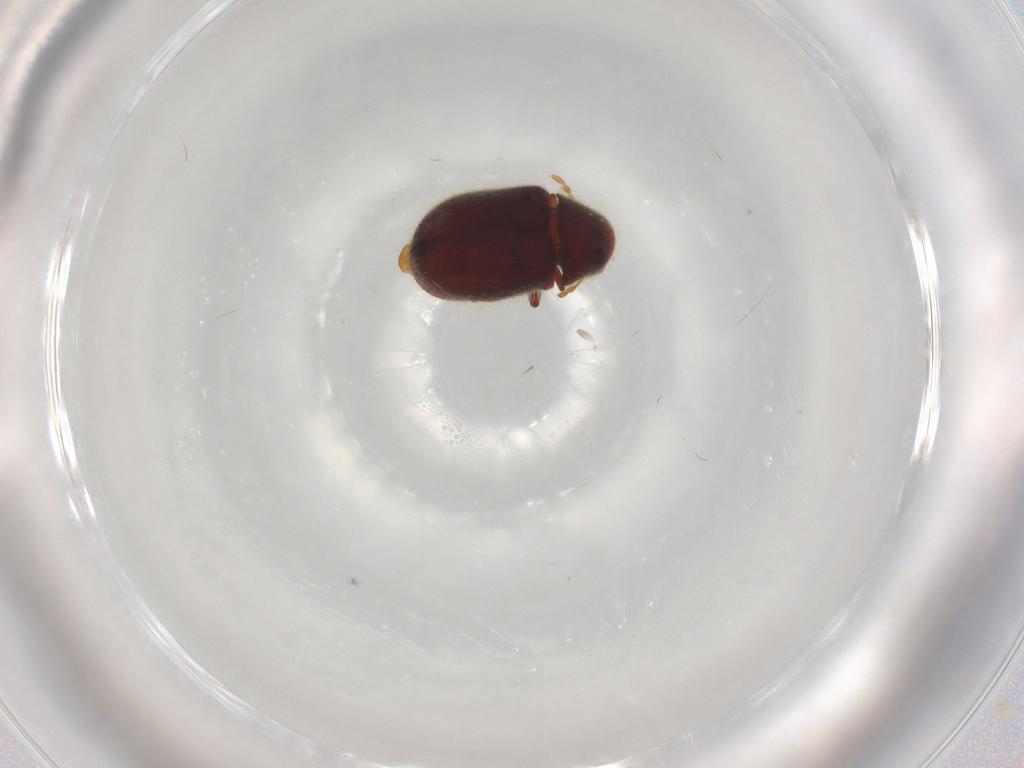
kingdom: Animalia
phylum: Arthropoda
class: Insecta
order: Coleoptera
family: Ptinidae
